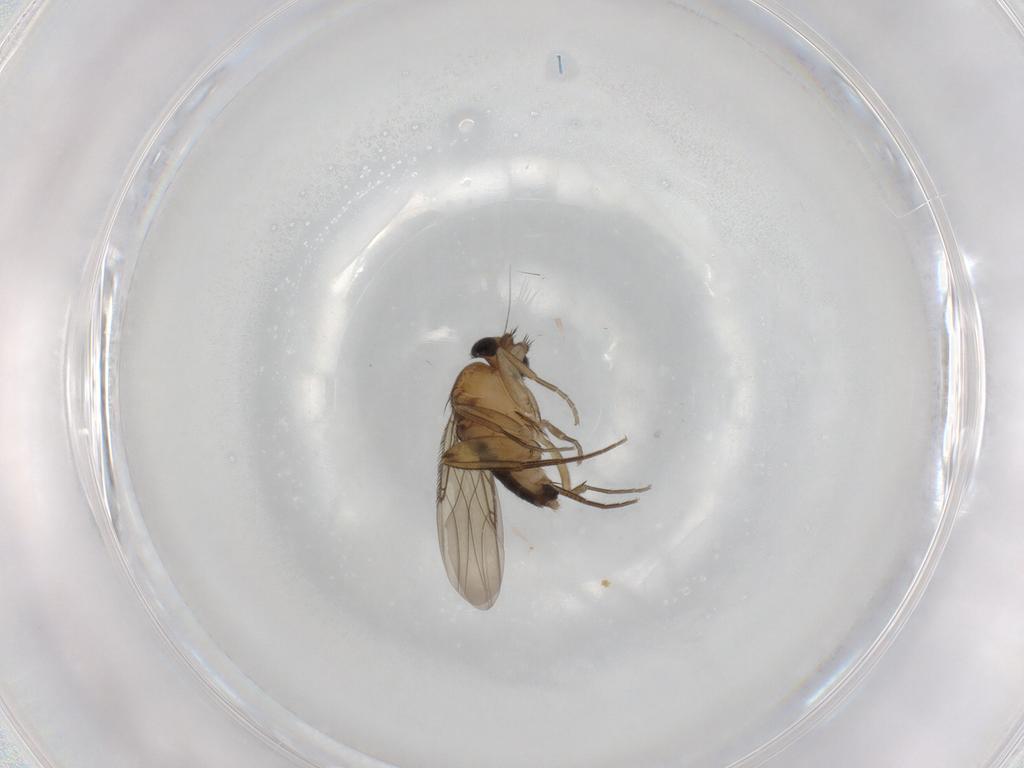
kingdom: Animalia
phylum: Arthropoda
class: Insecta
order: Diptera
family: Phoridae
